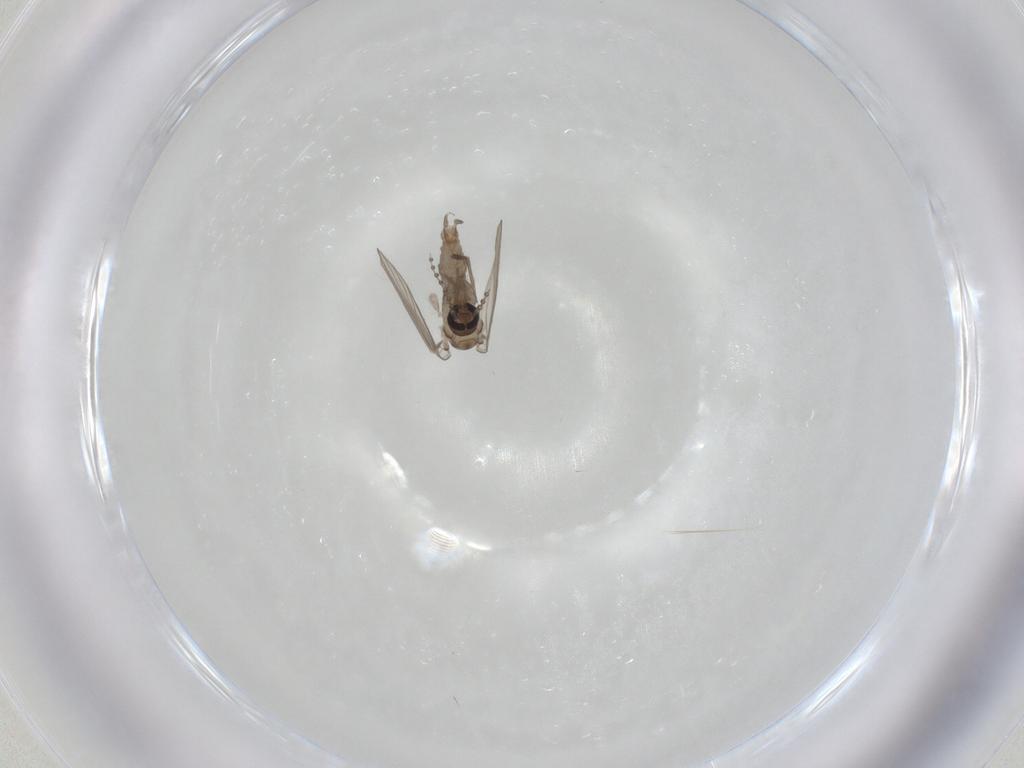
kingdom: Animalia
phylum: Arthropoda
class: Insecta
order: Diptera
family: Psychodidae
